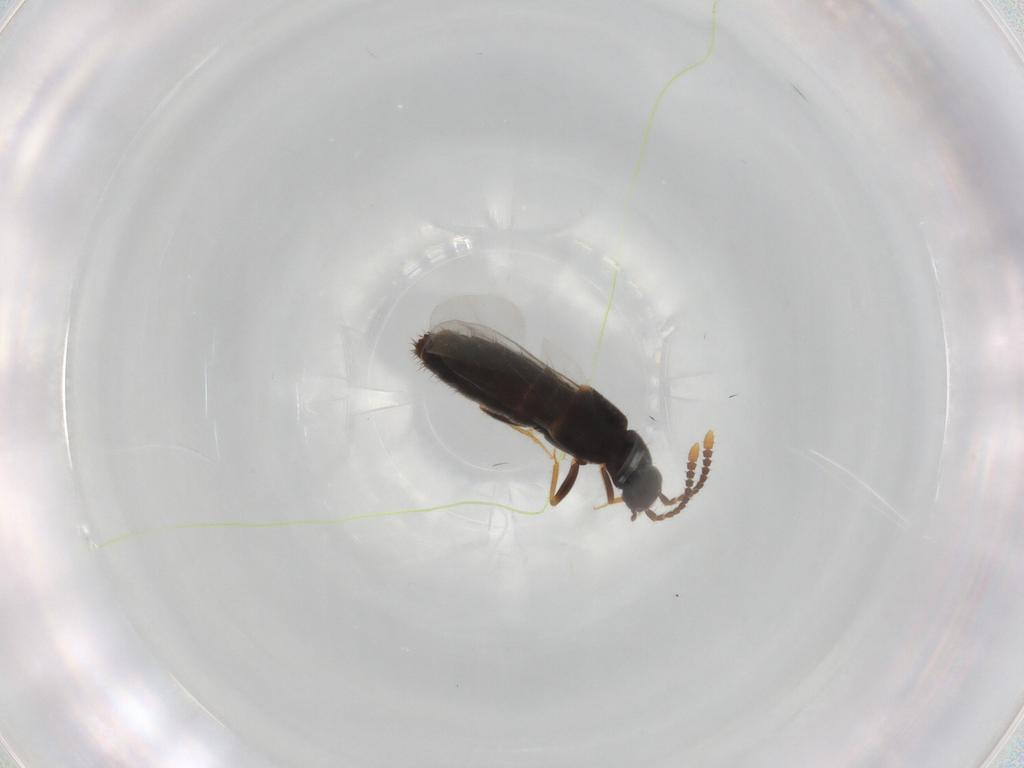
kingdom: Animalia
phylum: Arthropoda
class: Insecta
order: Coleoptera
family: Staphylinidae
